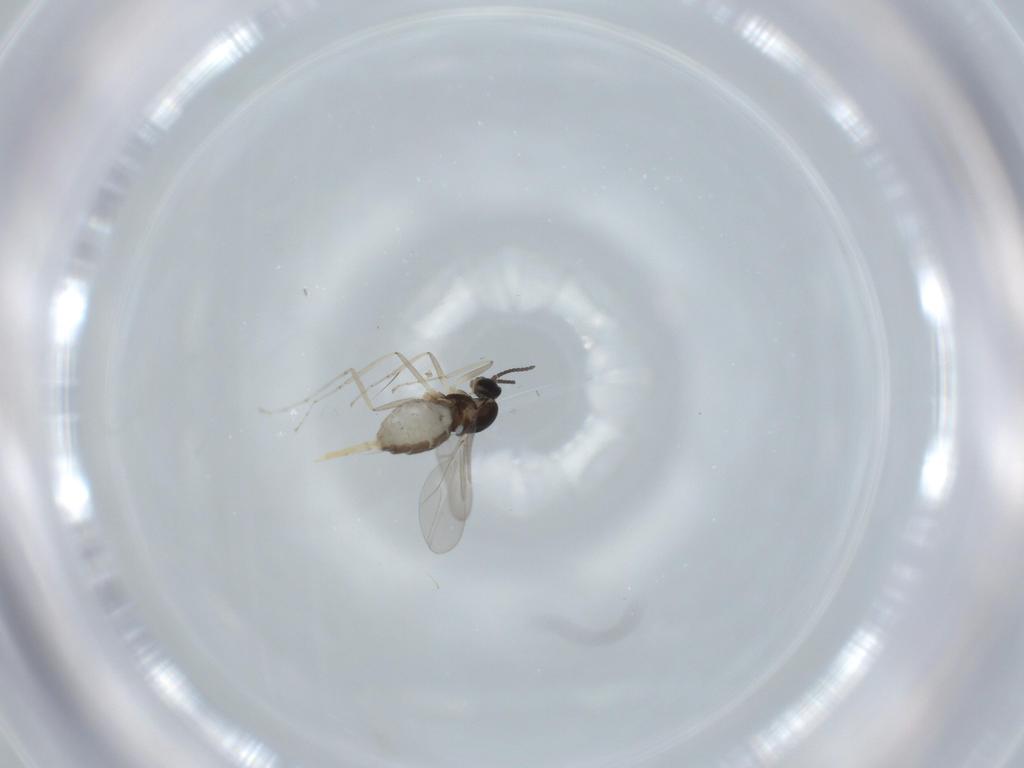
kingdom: Animalia
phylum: Arthropoda
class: Insecta
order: Diptera
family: Cecidomyiidae
